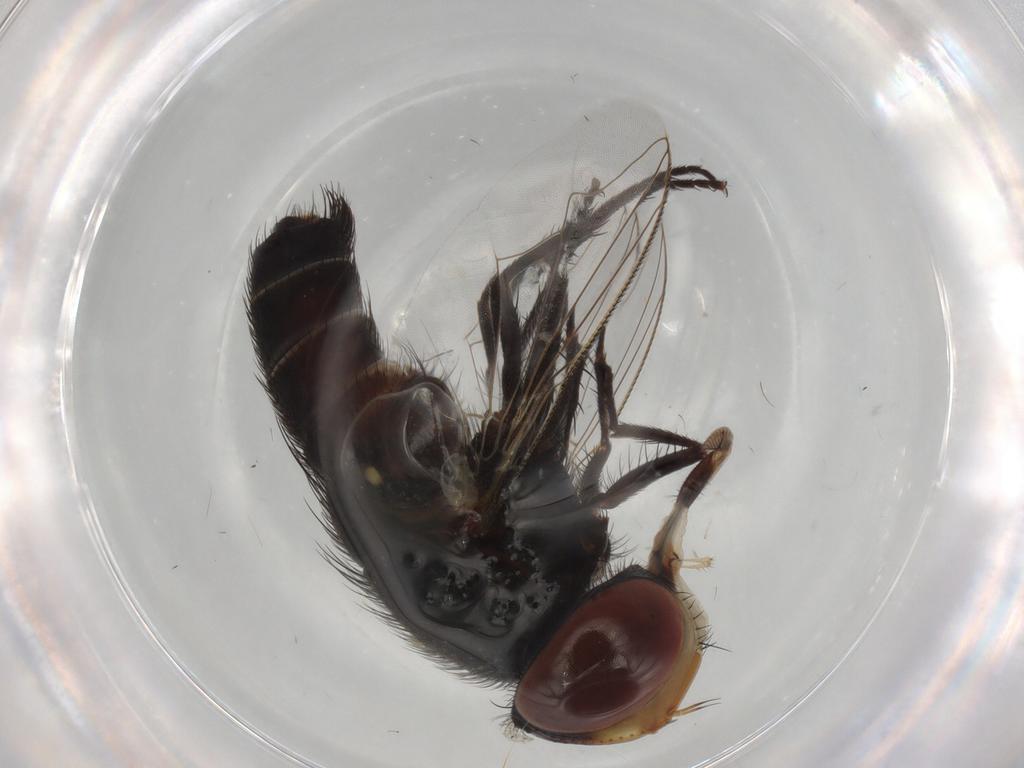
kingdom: Animalia
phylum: Arthropoda
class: Insecta
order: Diptera
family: Sarcophagidae
